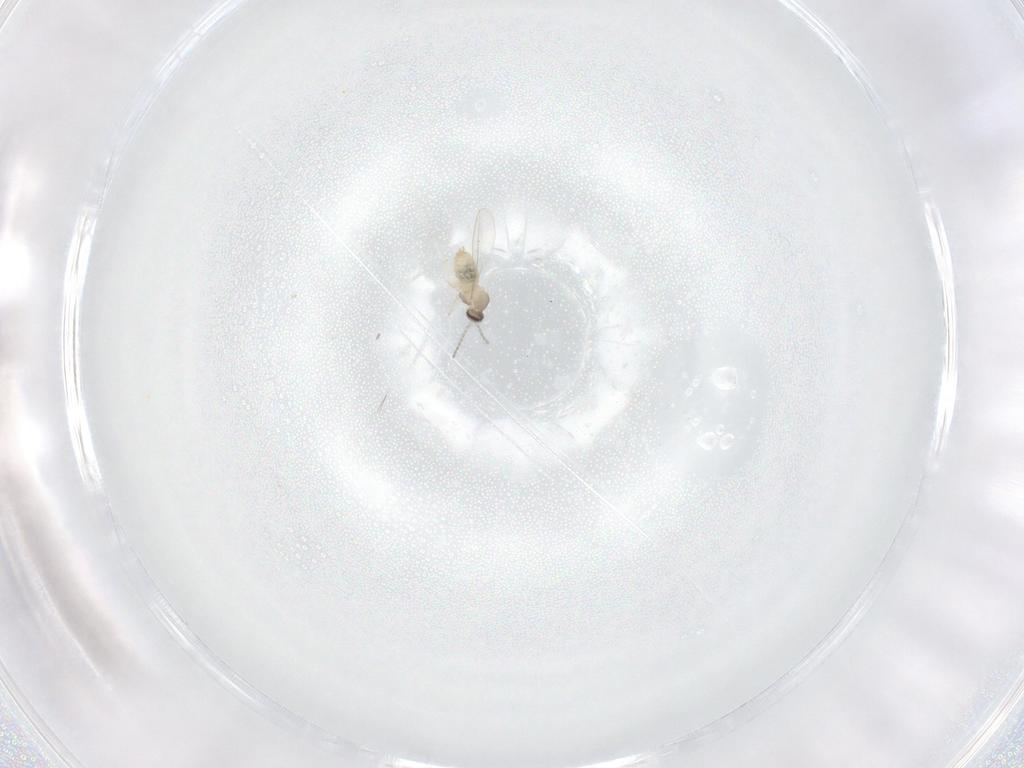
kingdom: Animalia
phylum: Arthropoda
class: Insecta
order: Diptera
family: Cecidomyiidae
